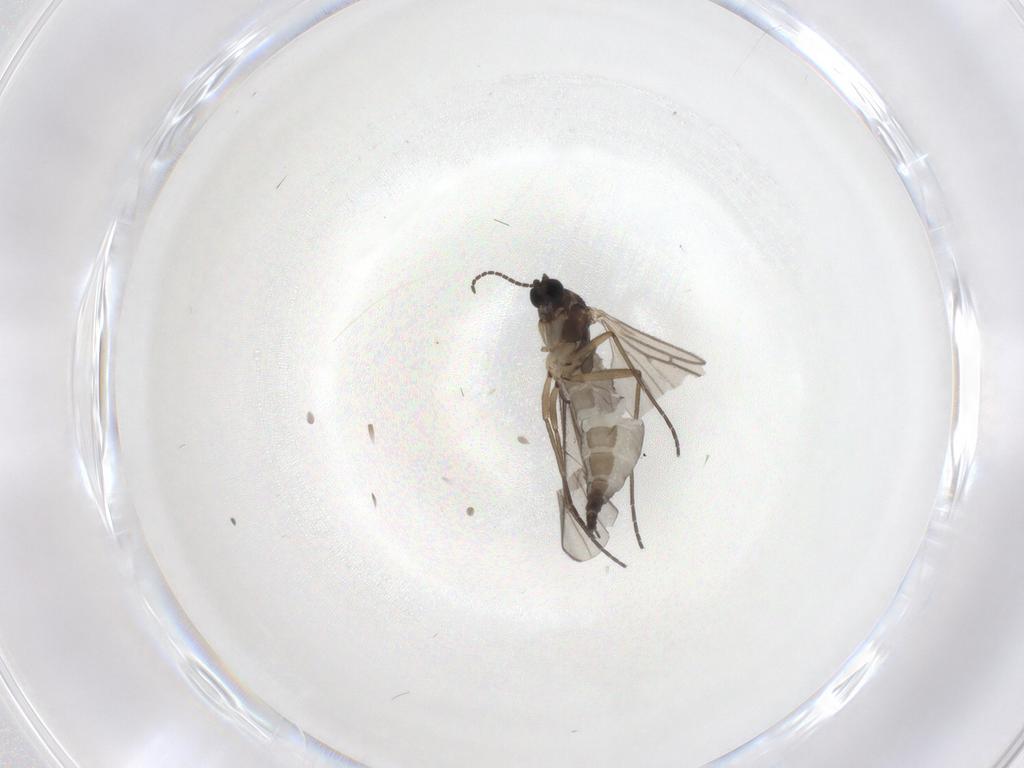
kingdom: Animalia
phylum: Arthropoda
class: Insecta
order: Diptera
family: Sciaridae
